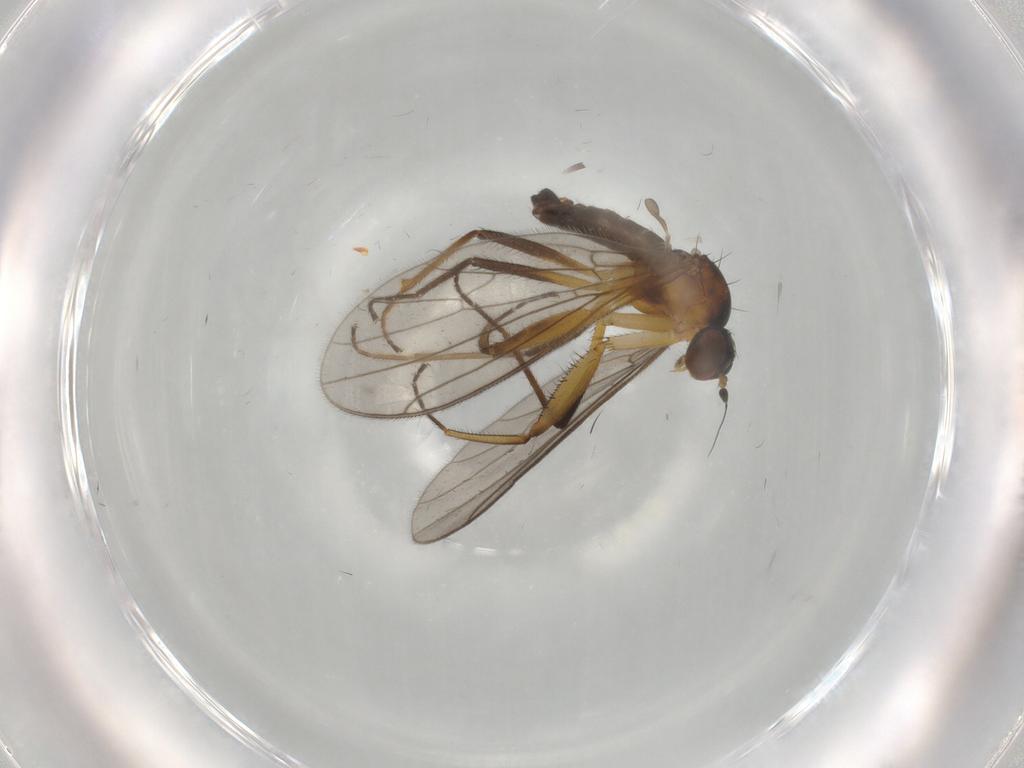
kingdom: Animalia
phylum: Arthropoda
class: Insecta
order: Diptera
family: Empididae
